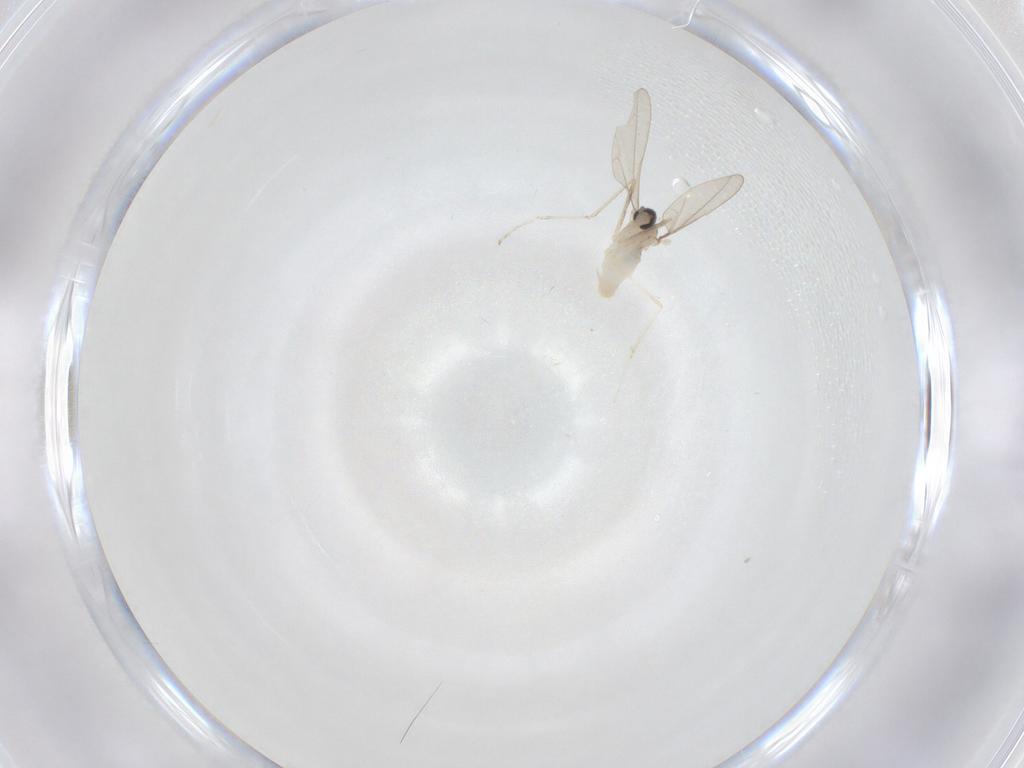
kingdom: Animalia
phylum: Arthropoda
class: Insecta
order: Diptera
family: Cecidomyiidae
